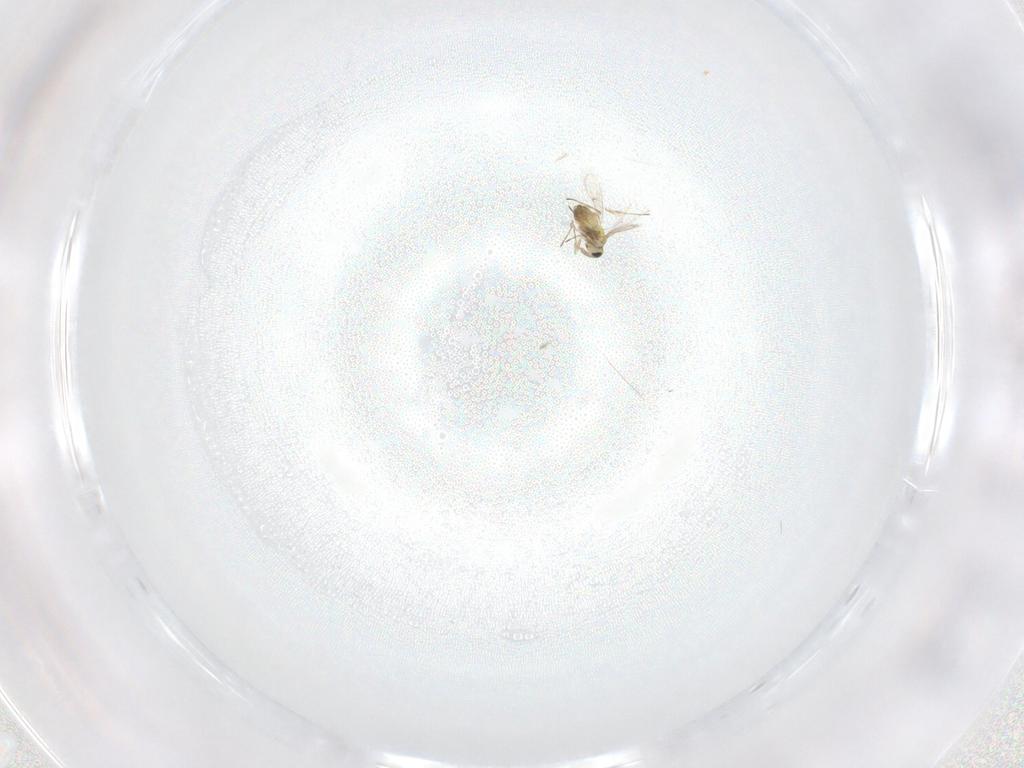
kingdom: Animalia
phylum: Arthropoda
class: Insecta
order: Hymenoptera
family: Trichogrammatidae
